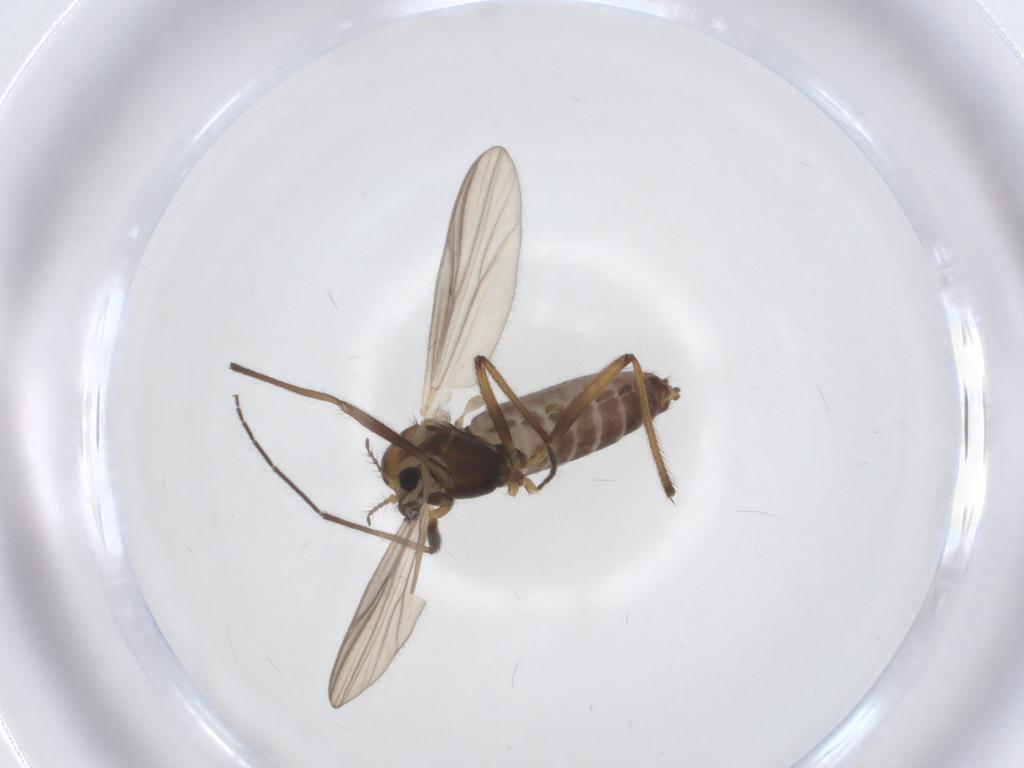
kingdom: Animalia
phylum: Arthropoda
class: Insecta
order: Diptera
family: Chironomidae
